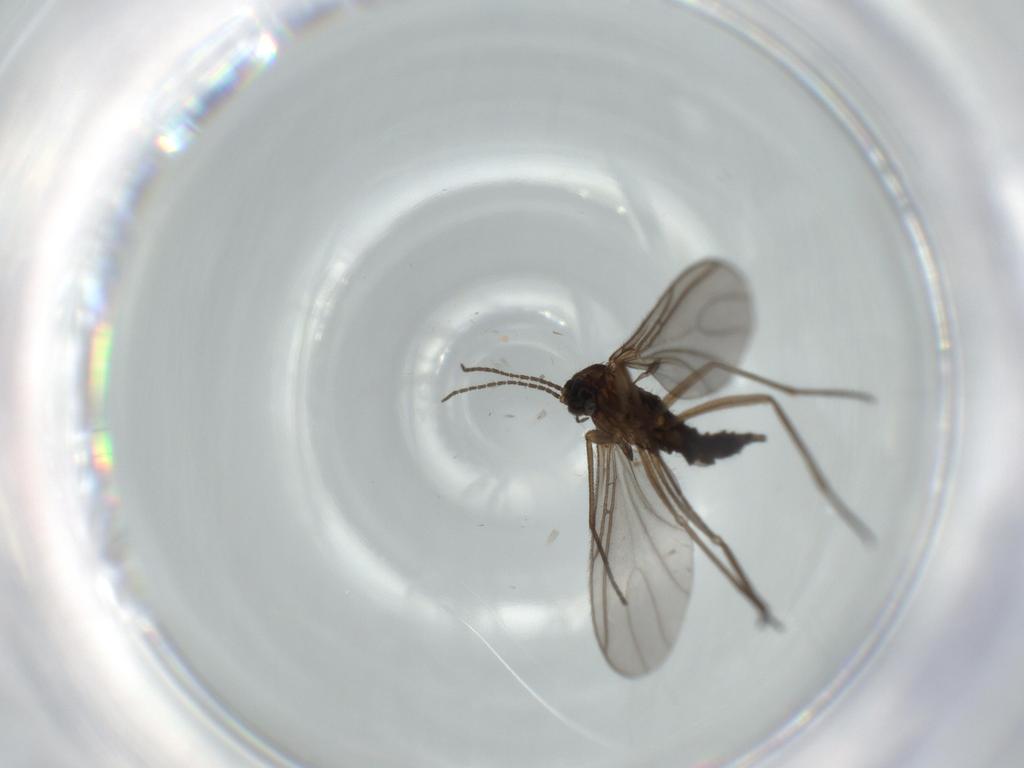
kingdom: Animalia
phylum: Arthropoda
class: Insecta
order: Diptera
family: Sciaridae
